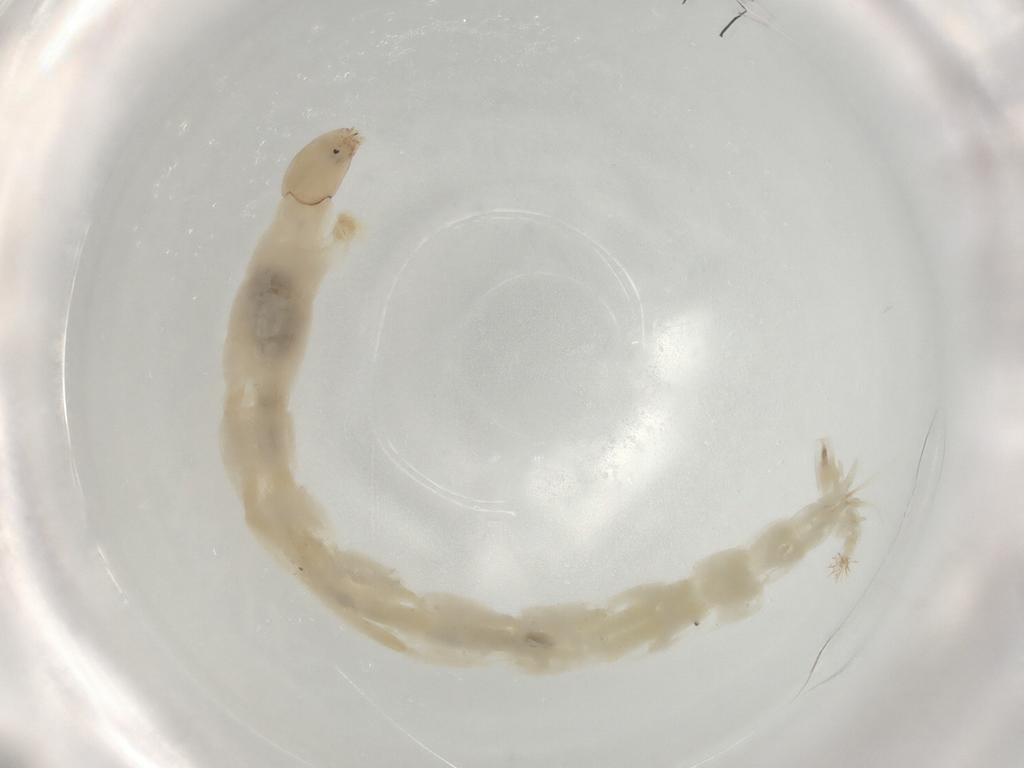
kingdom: Animalia
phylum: Arthropoda
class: Insecta
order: Diptera
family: Chironomidae
